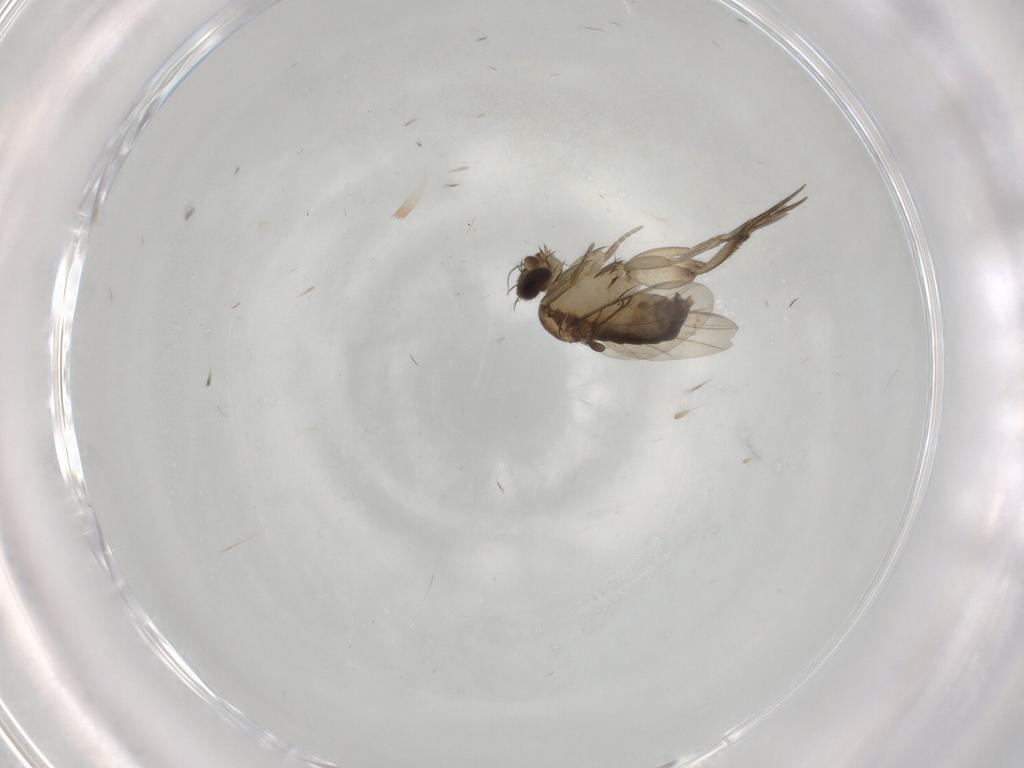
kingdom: Animalia
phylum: Arthropoda
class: Insecta
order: Diptera
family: Phoridae
